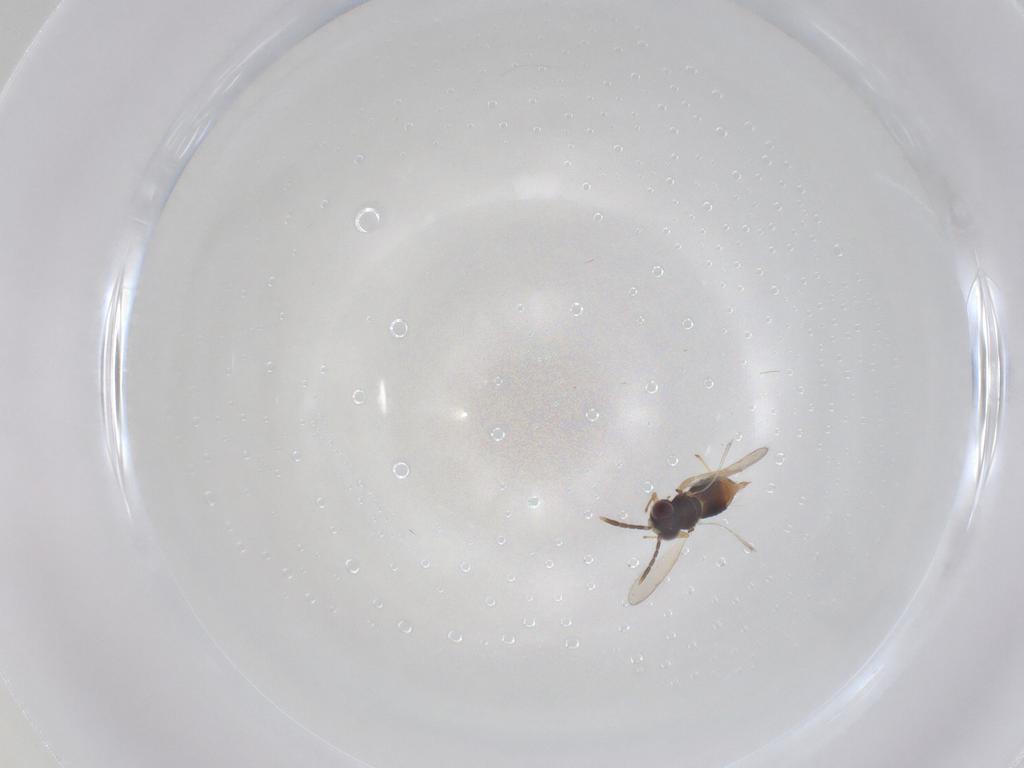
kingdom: Animalia
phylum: Arthropoda
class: Insecta
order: Hymenoptera
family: Aphelinidae
